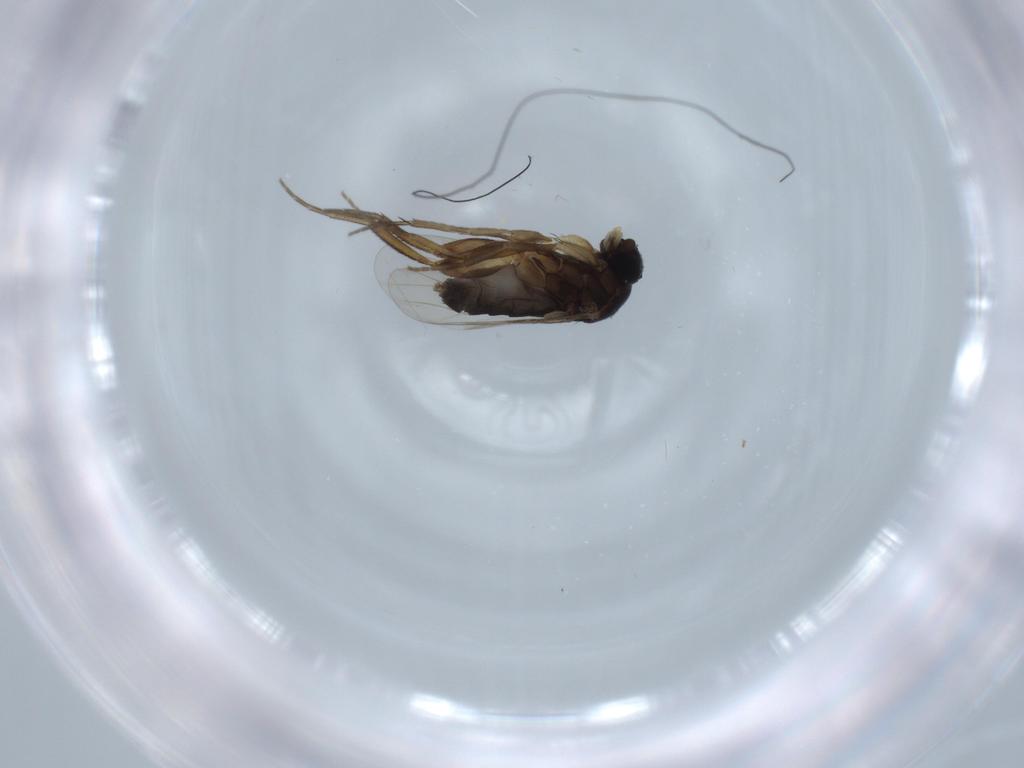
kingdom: Animalia
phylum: Arthropoda
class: Insecta
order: Diptera
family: Phoridae
